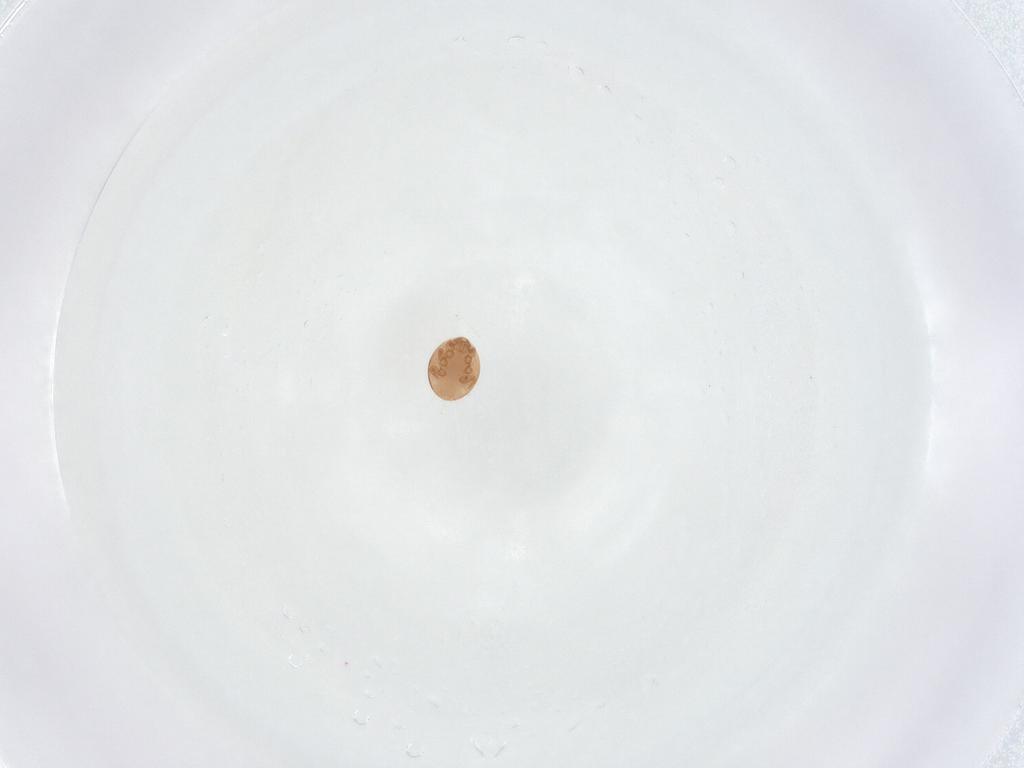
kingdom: Animalia
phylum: Arthropoda
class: Arachnida
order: Mesostigmata
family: Trematuridae
